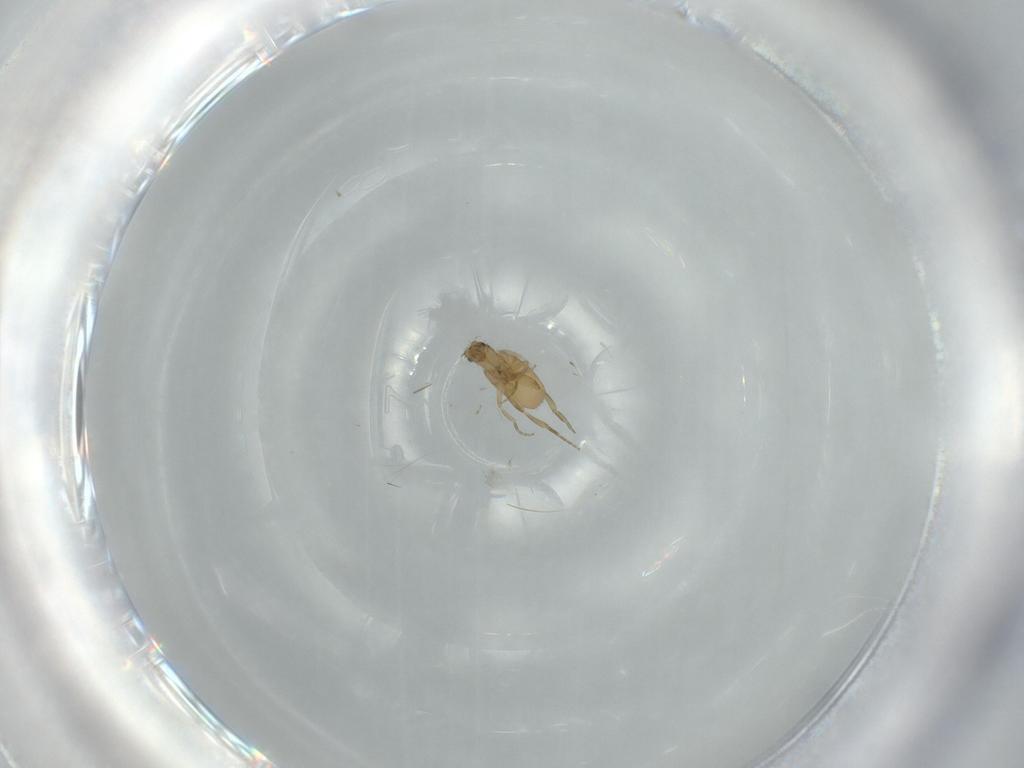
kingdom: Animalia
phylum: Arthropoda
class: Insecta
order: Diptera
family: Phoridae
